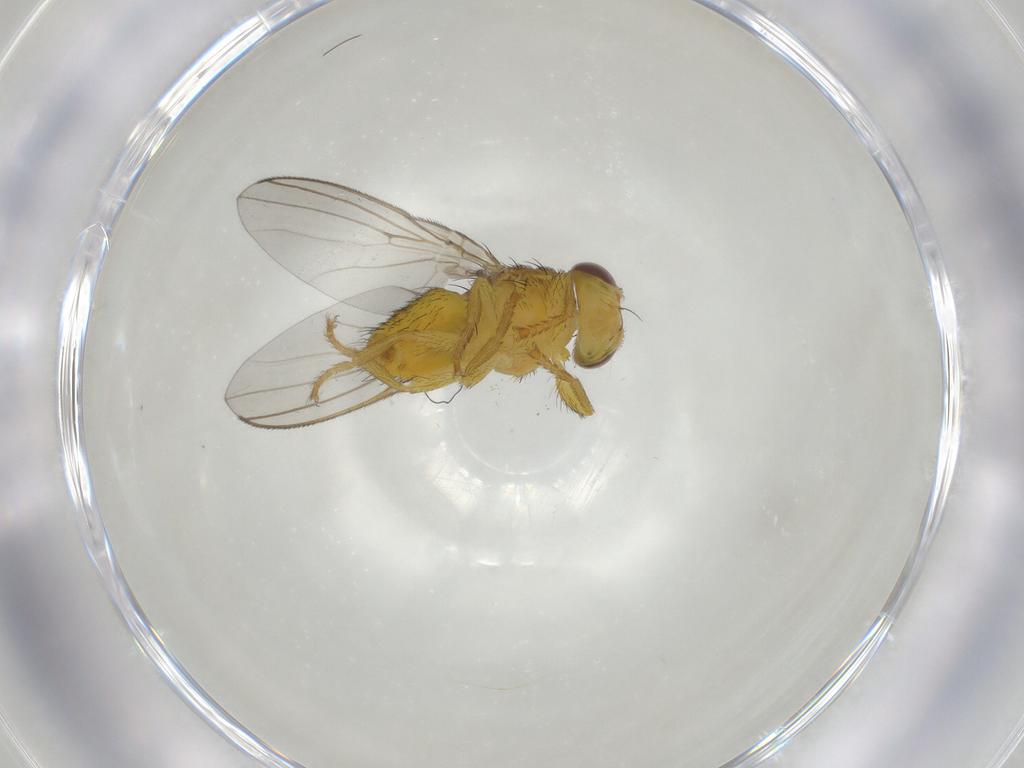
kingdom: Animalia
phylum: Arthropoda
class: Insecta
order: Diptera
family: Fergusoninidae
